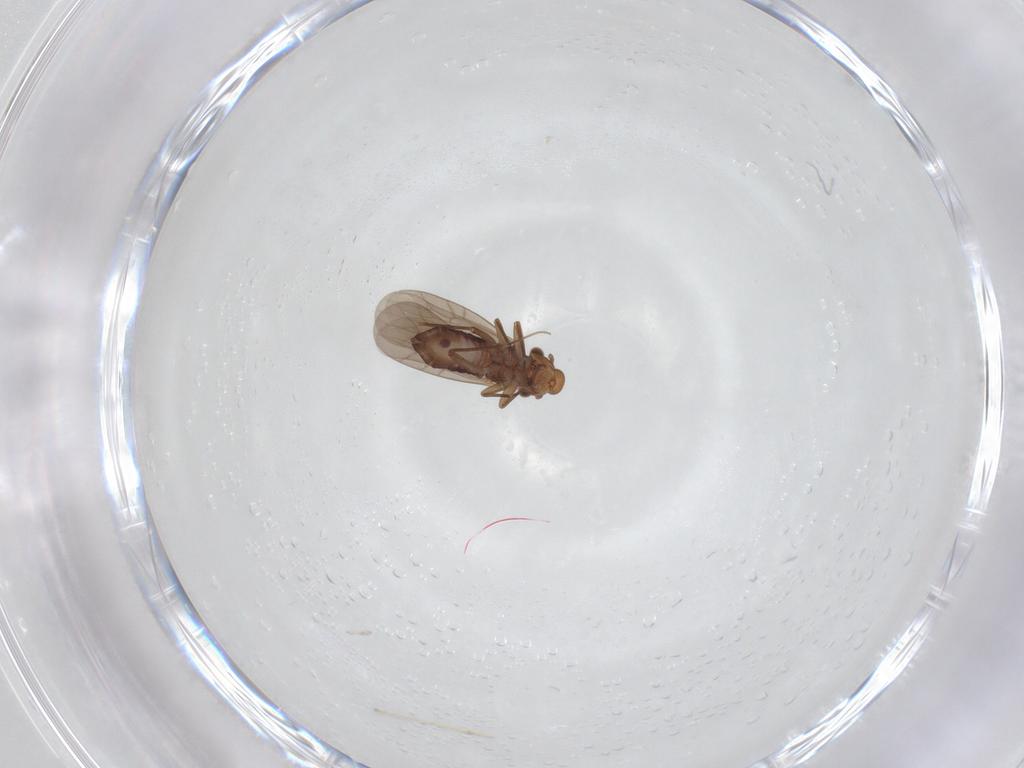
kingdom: Animalia
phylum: Arthropoda
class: Insecta
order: Psocodea
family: Lepidopsocidae
